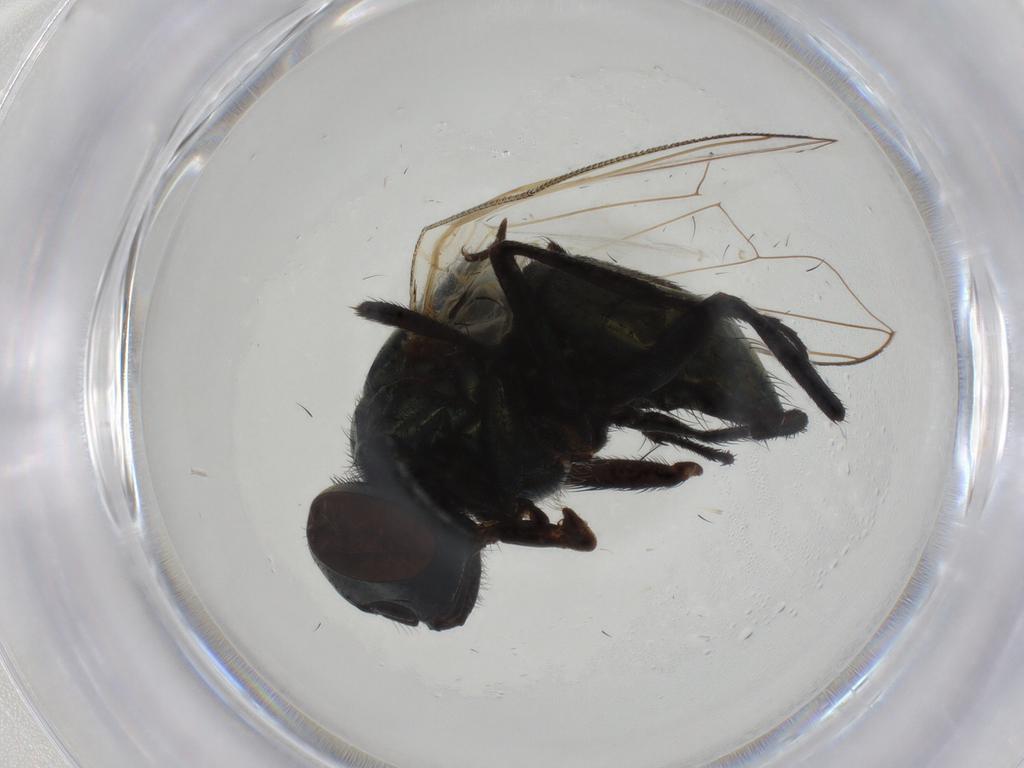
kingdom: Animalia
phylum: Arthropoda
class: Insecta
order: Diptera
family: Muscidae
